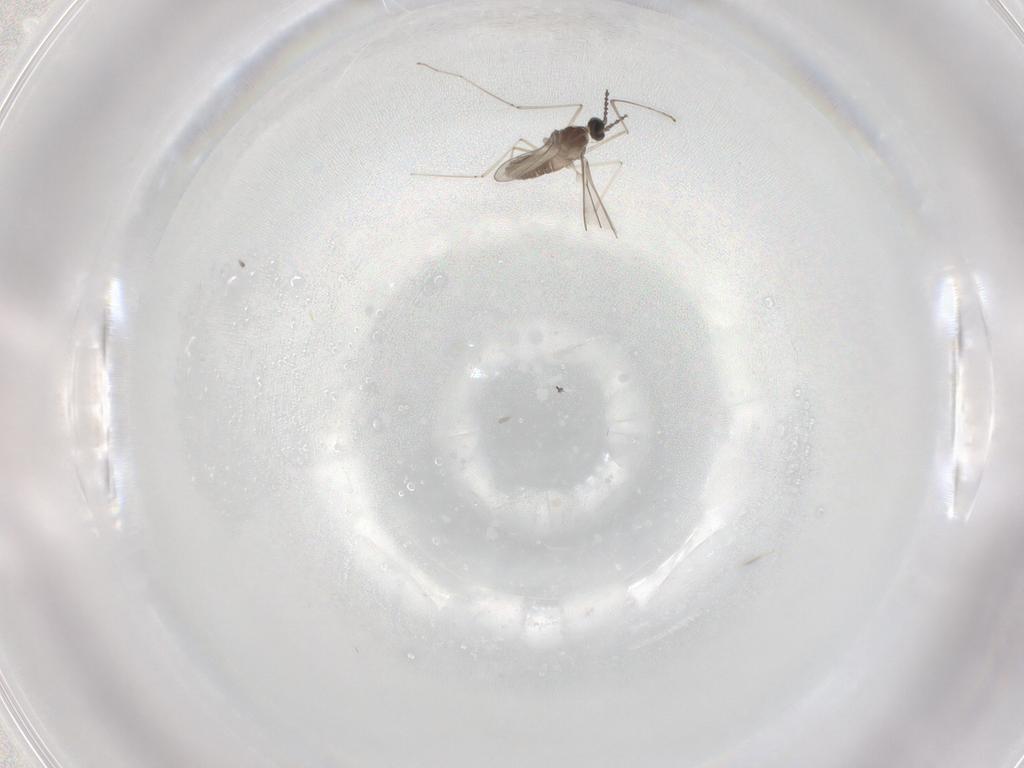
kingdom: Animalia
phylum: Arthropoda
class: Insecta
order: Diptera
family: Cecidomyiidae
